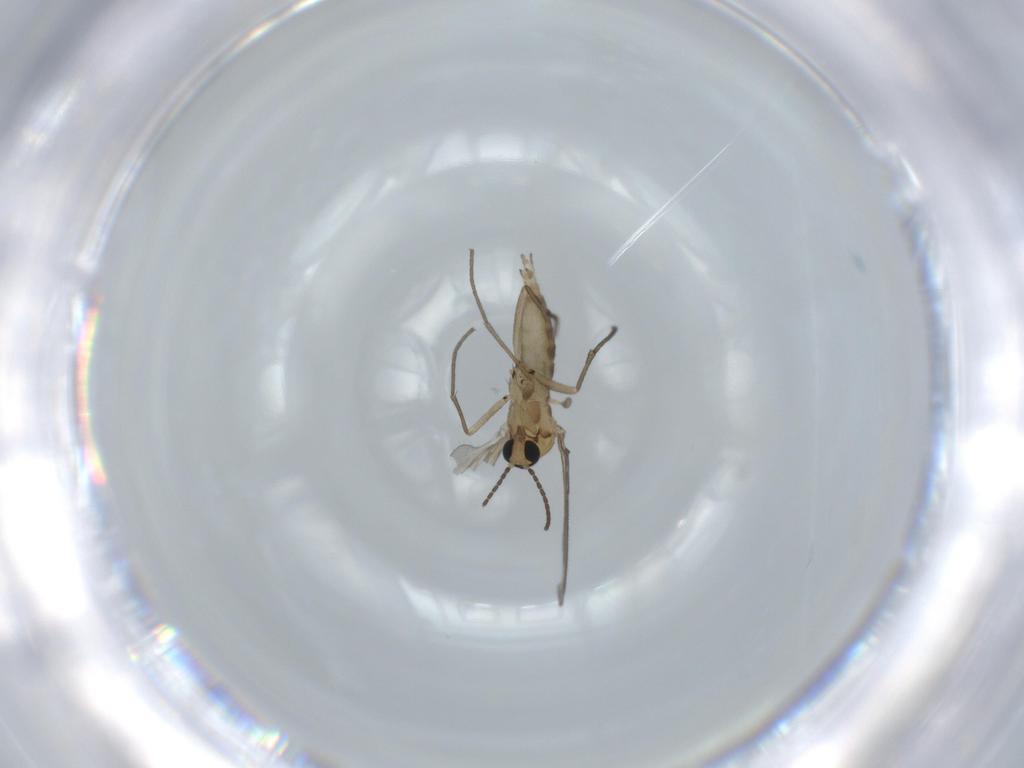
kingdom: Animalia
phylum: Arthropoda
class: Insecta
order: Diptera
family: Sciaridae
